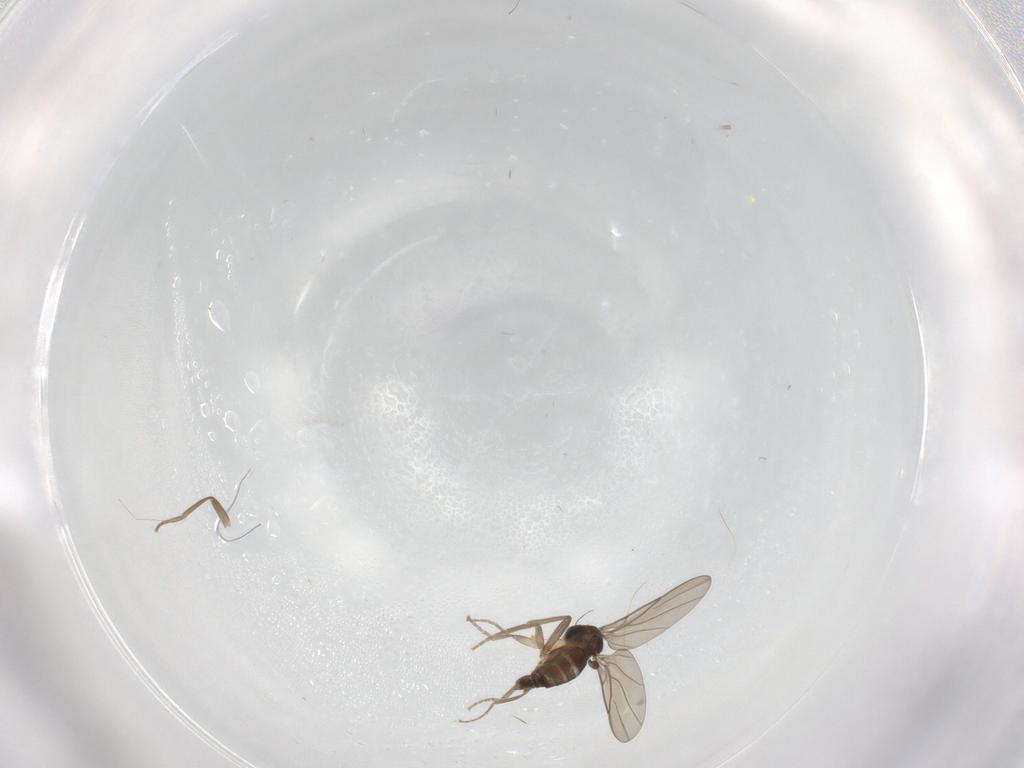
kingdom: Animalia
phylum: Arthropoda
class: Insecta
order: Diptera
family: Phoridae
